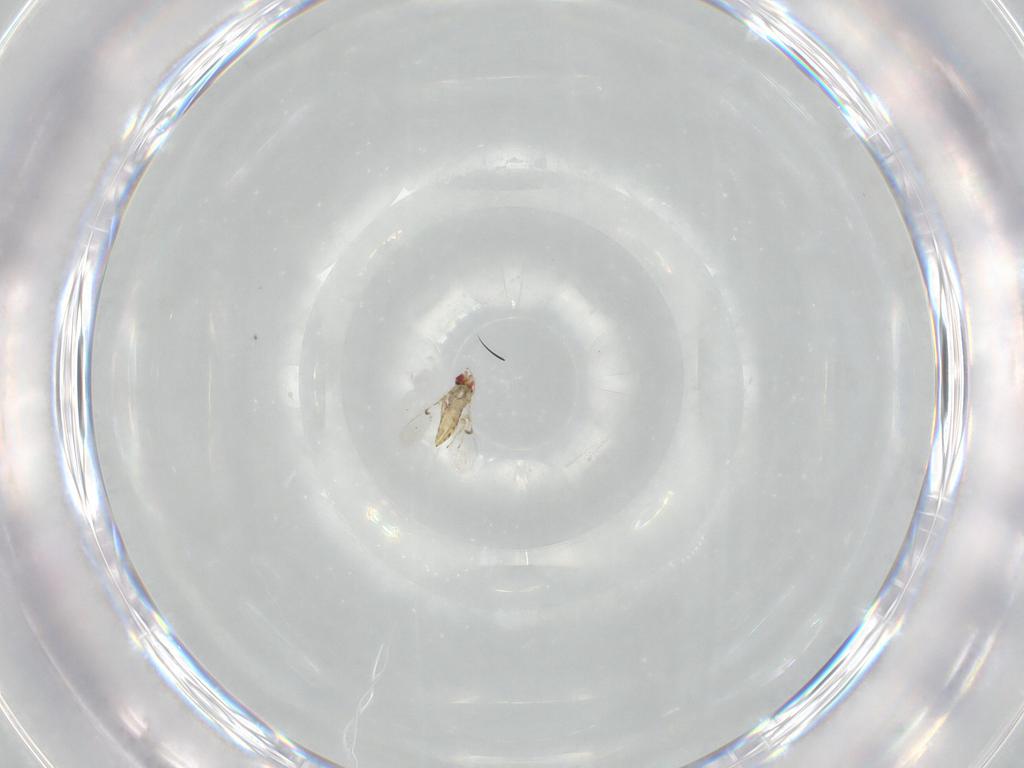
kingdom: Animalia
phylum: Arthropoda
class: Insecta
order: Hymenoptera
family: Trichogrammatidae
